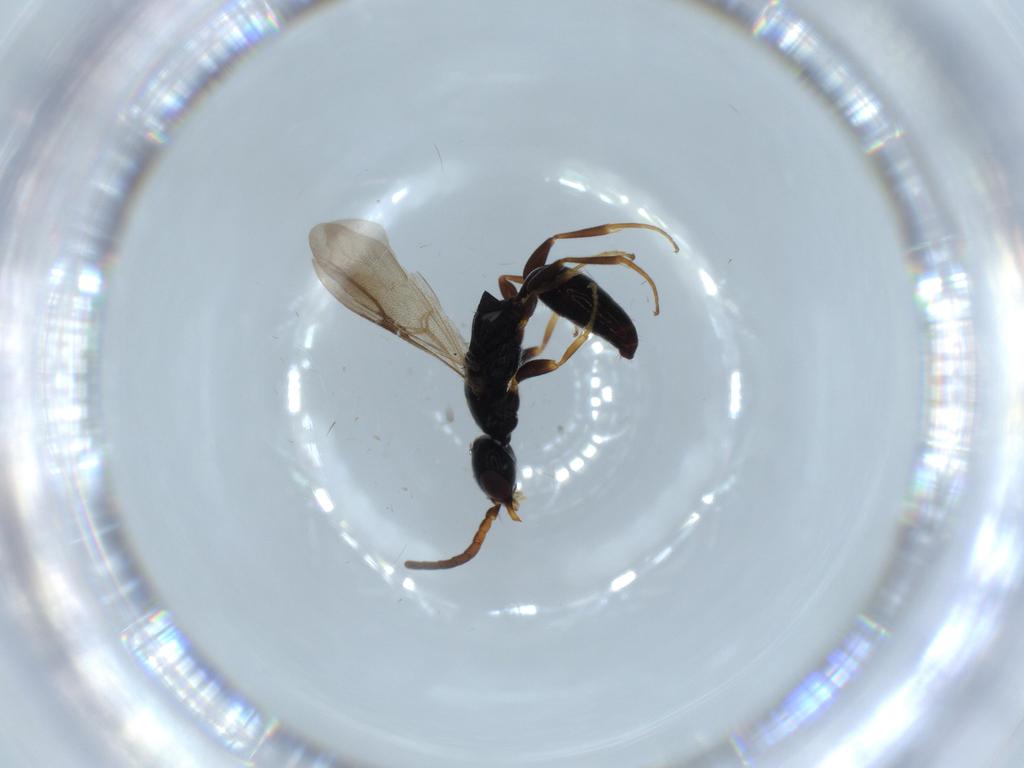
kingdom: Animalia
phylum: Arthropoda
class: Insecta
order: Hymenoptera
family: Bethylidae
